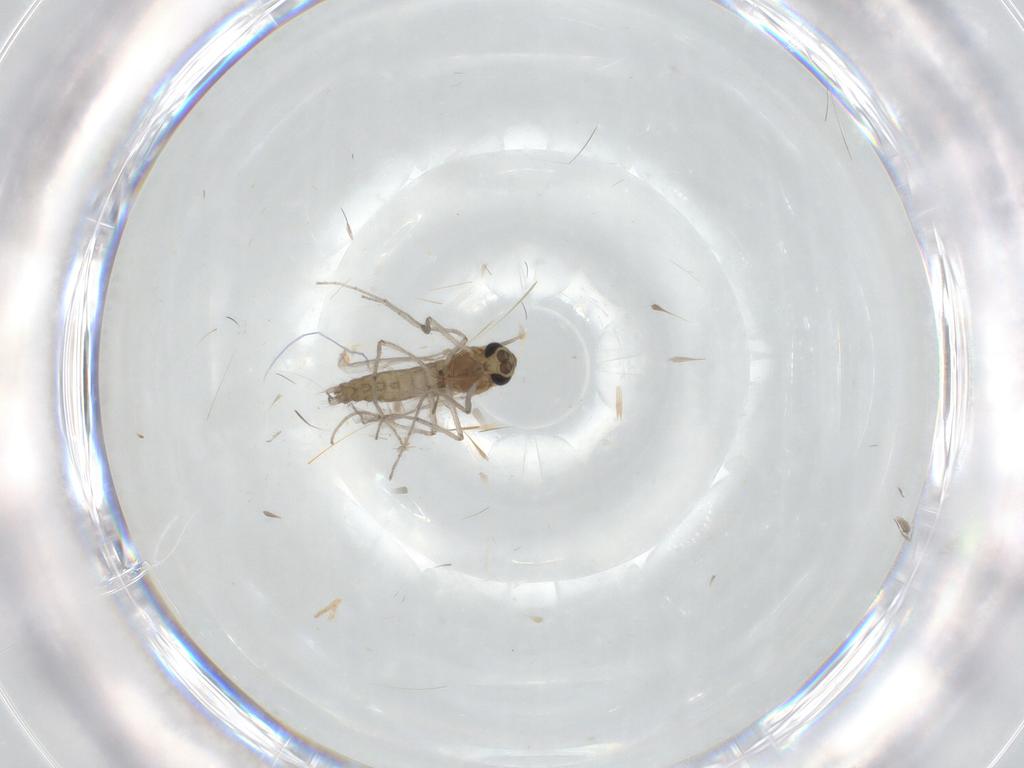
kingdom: Animalia
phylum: Arthropoda
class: Insecta
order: Diptera
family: Chironomidae
